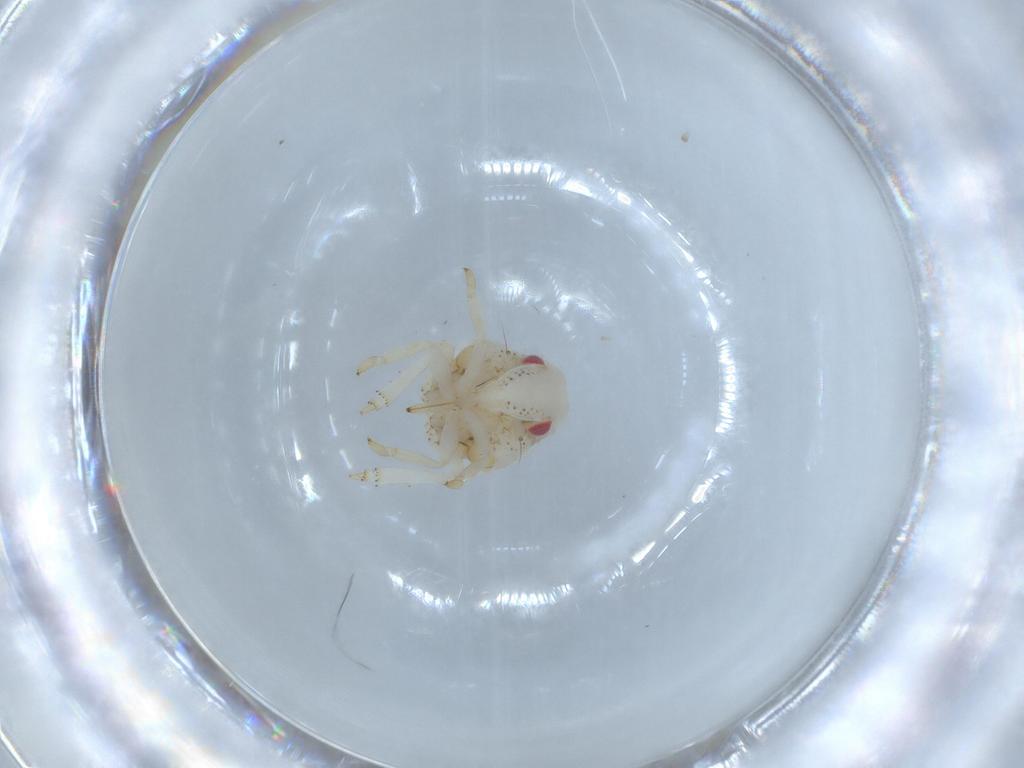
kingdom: Animalia
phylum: Arthropoda
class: Insecta
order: Hemiptera
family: Acanaloniidae
